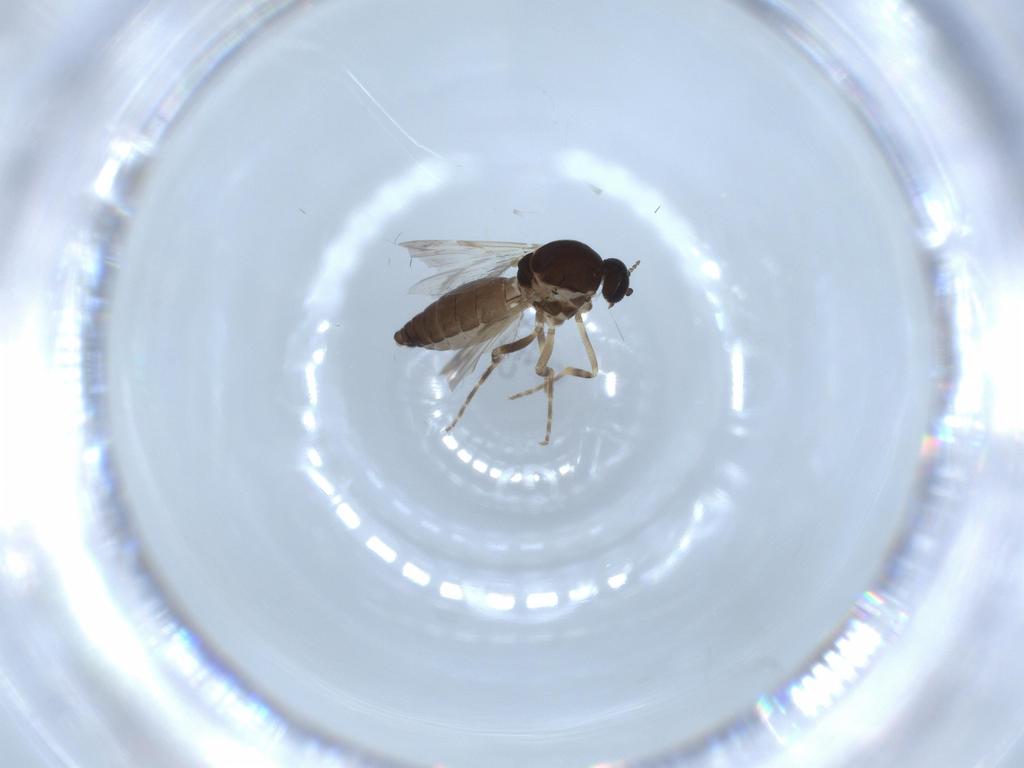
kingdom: Animalia
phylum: Arthropoda
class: Insecta
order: Diptera
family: Ceratopogonidae
